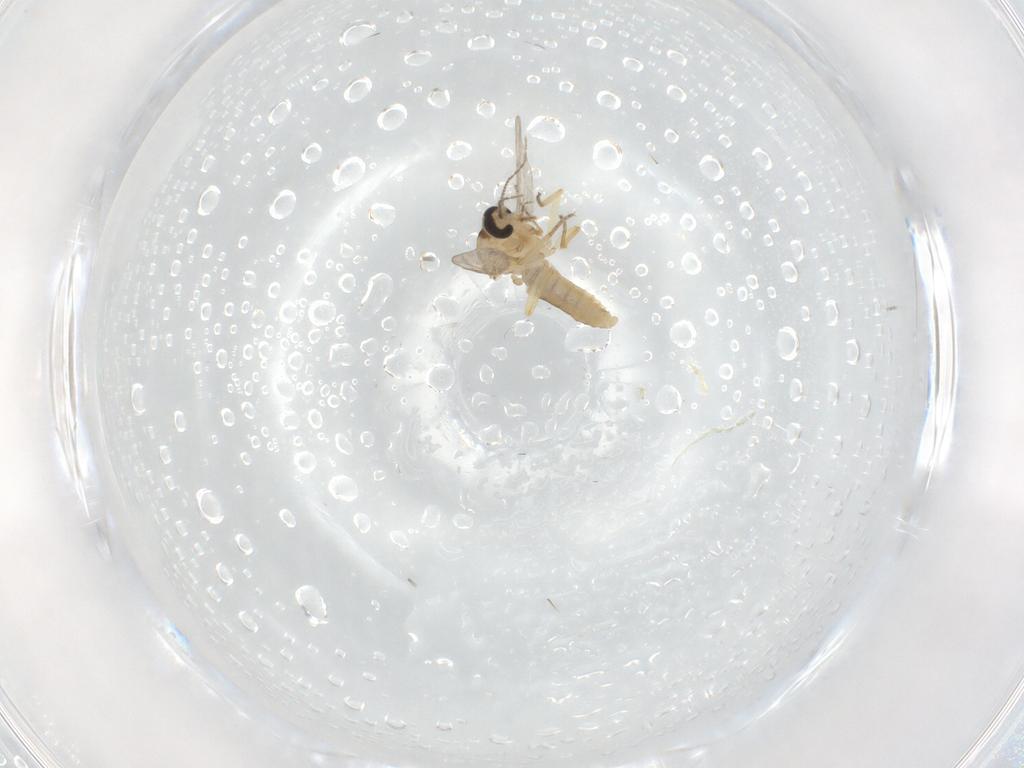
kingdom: Animalia
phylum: Arthropoda
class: Insecta
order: Diptera
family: Ceratopogonidae
